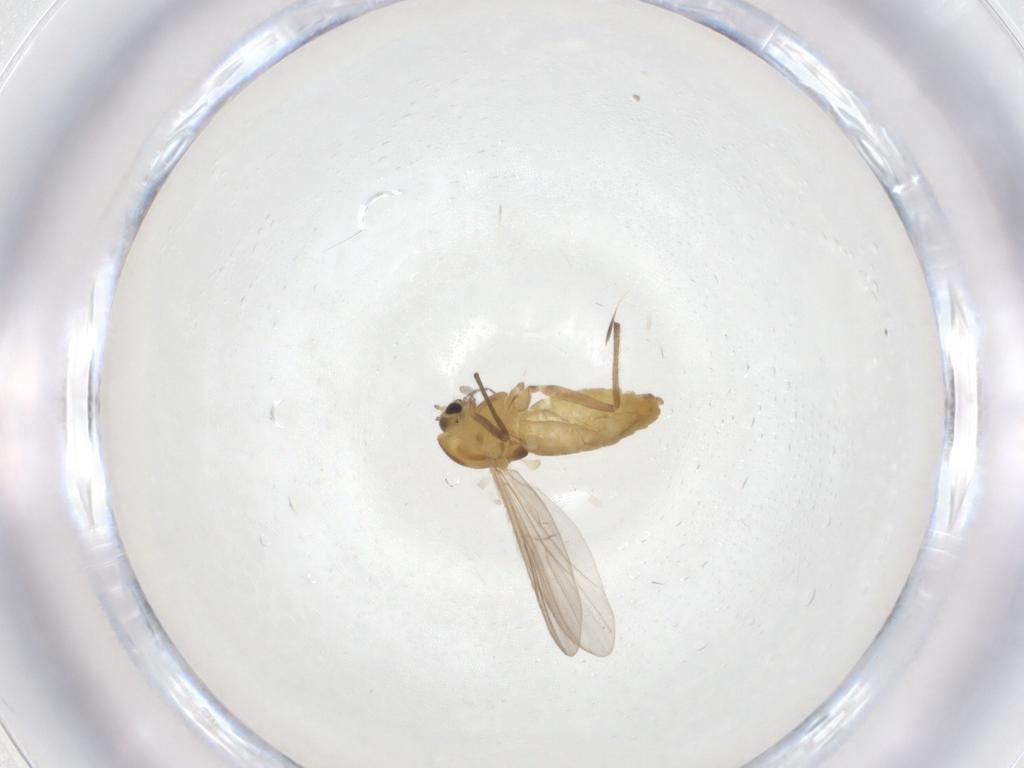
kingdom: Animalia
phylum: Arthropoda
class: Insecta
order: Diptera
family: Chironomidae
